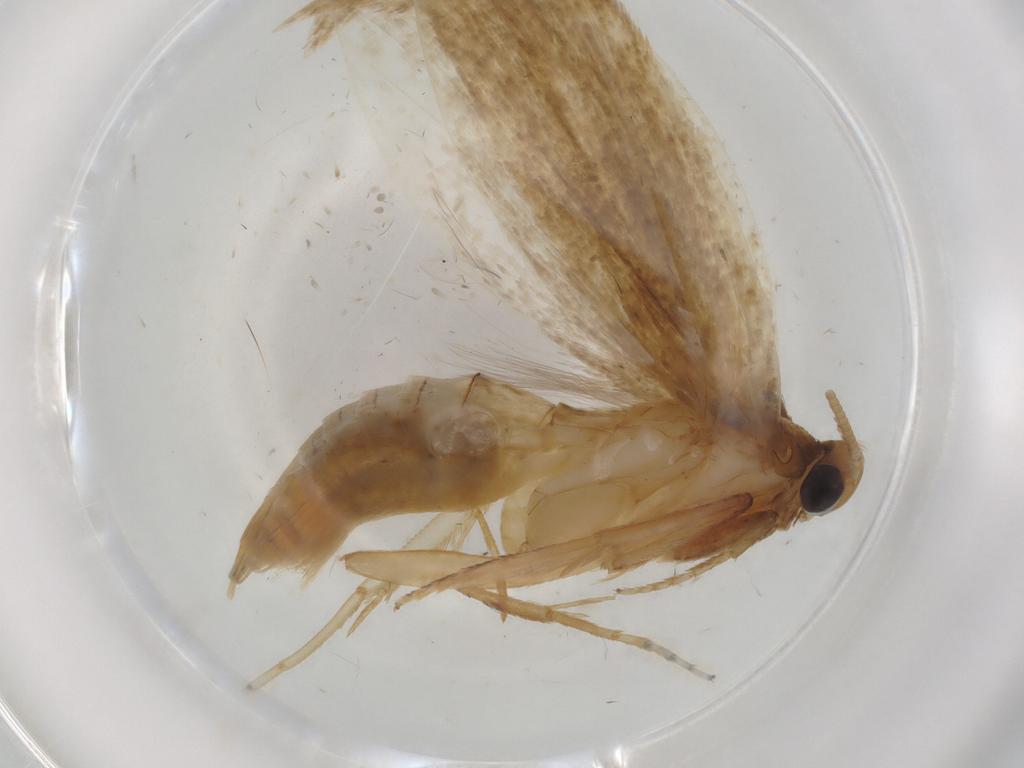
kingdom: Animalia
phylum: Arthropoda
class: Insecta
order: Lepidoptera
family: Tineidae
